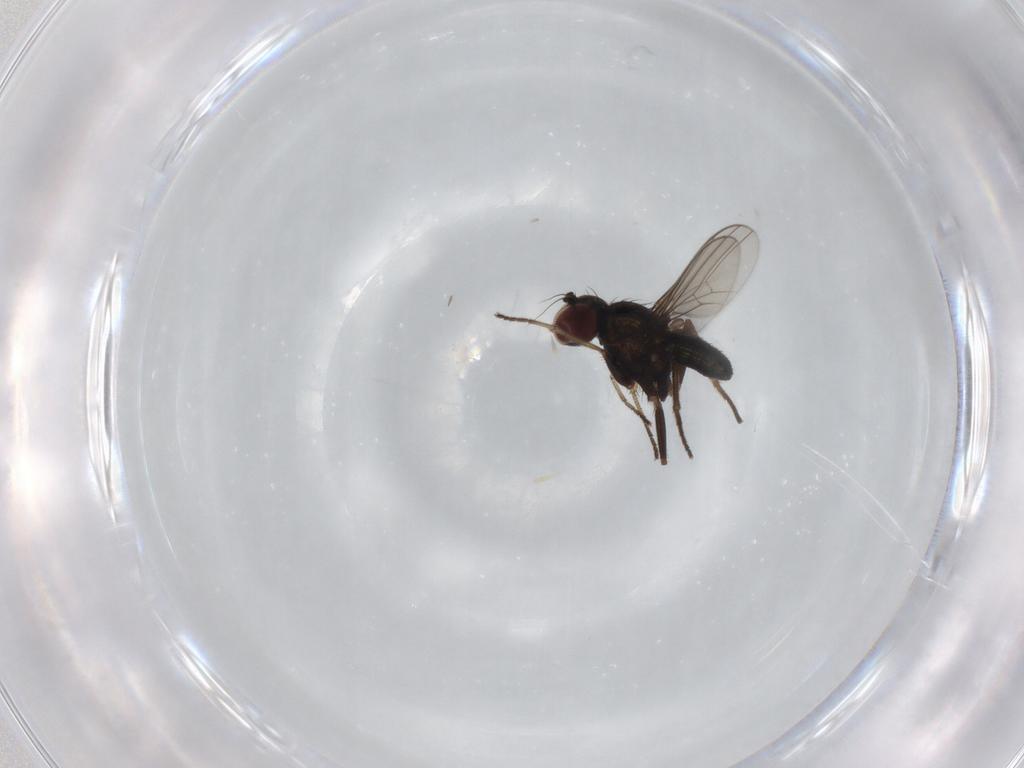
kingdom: Animalia
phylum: Arthropoda
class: Insecta
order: Diptera
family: Dolichopodidae
